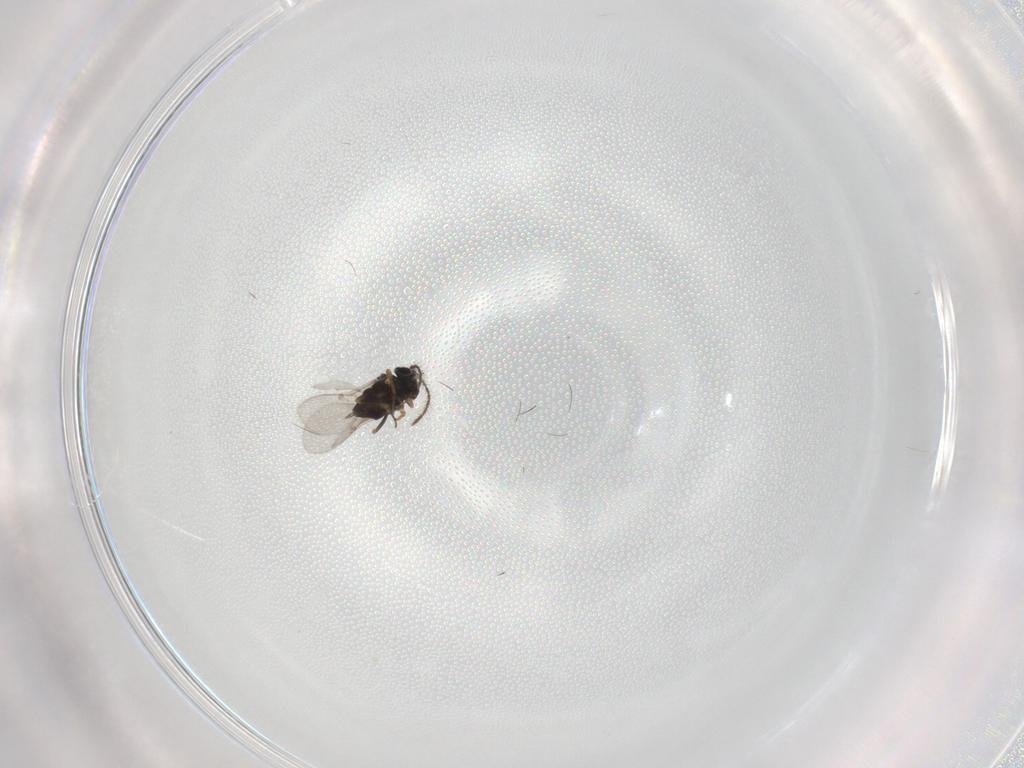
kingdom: Animalia
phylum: Arthropoda
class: Insecta
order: Hymenoptera
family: Encyrtidae
